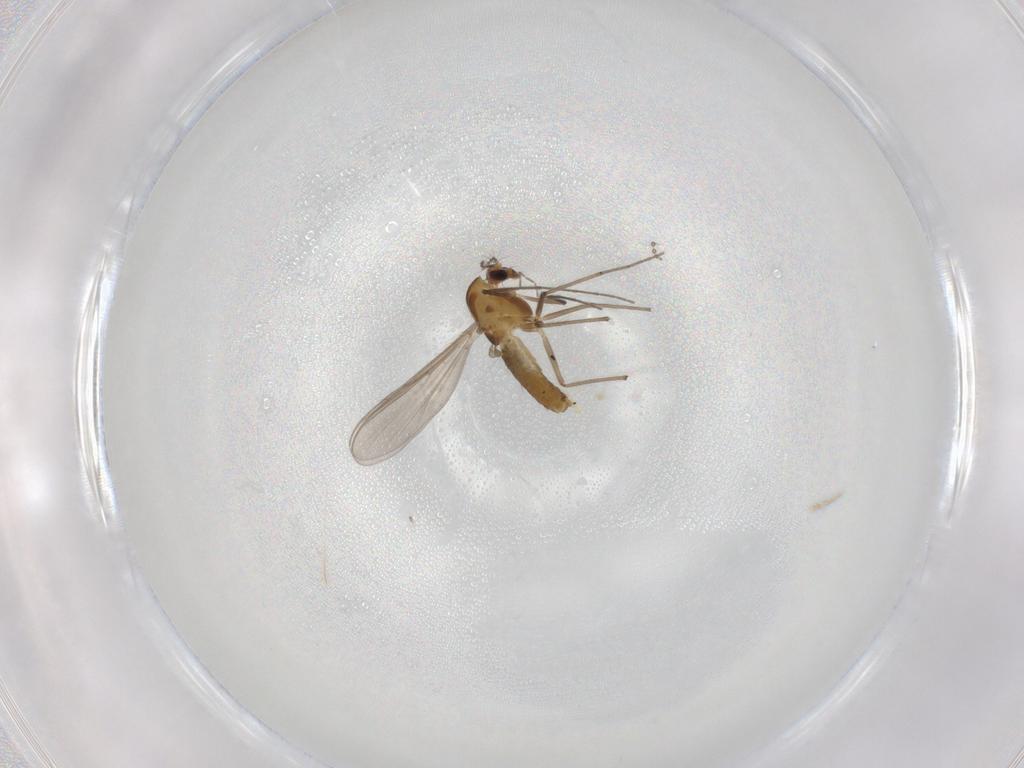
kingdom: Animalia
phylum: Arthropoda
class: Insecta
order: Diptera
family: Chironomidae
